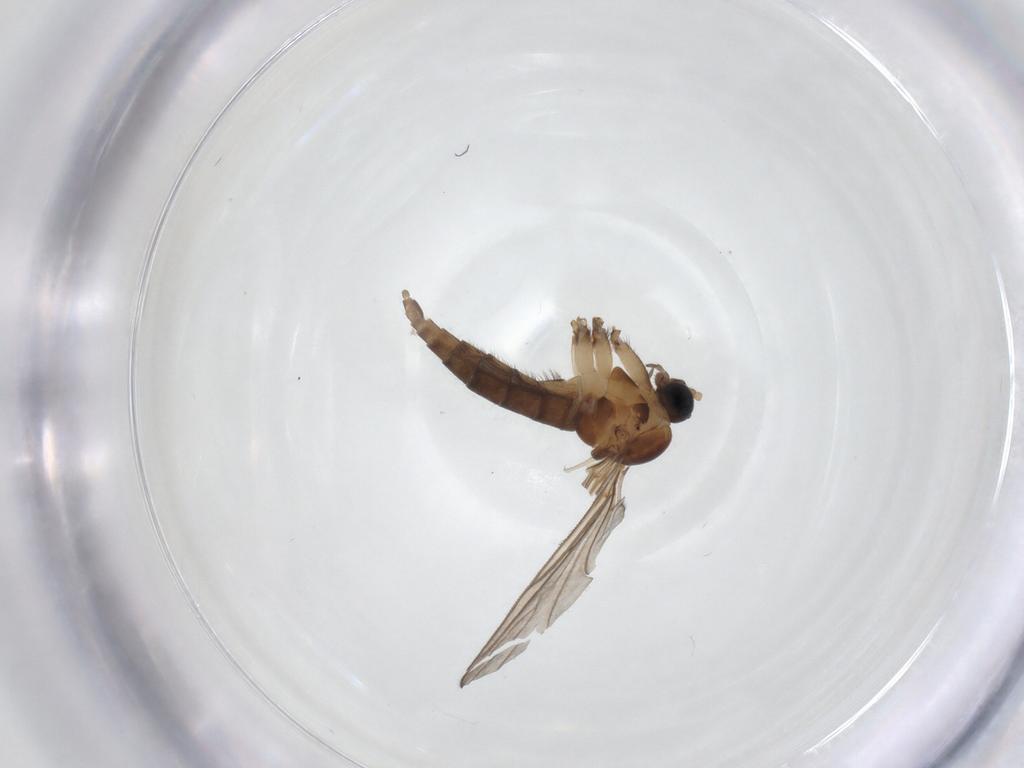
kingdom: Animalia
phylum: Arthropoda
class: Insecta
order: Diptera
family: Sciaridae
